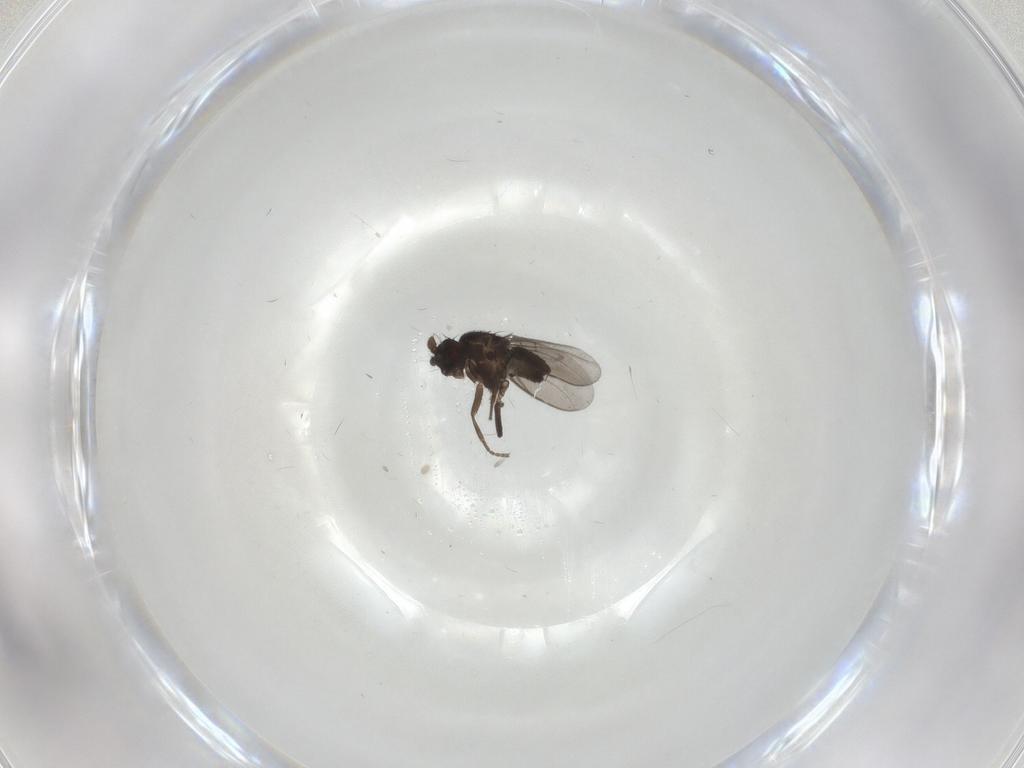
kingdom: Animalia
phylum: Arthropoda
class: Insecta
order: Diptera
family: Sphaeroceridae
